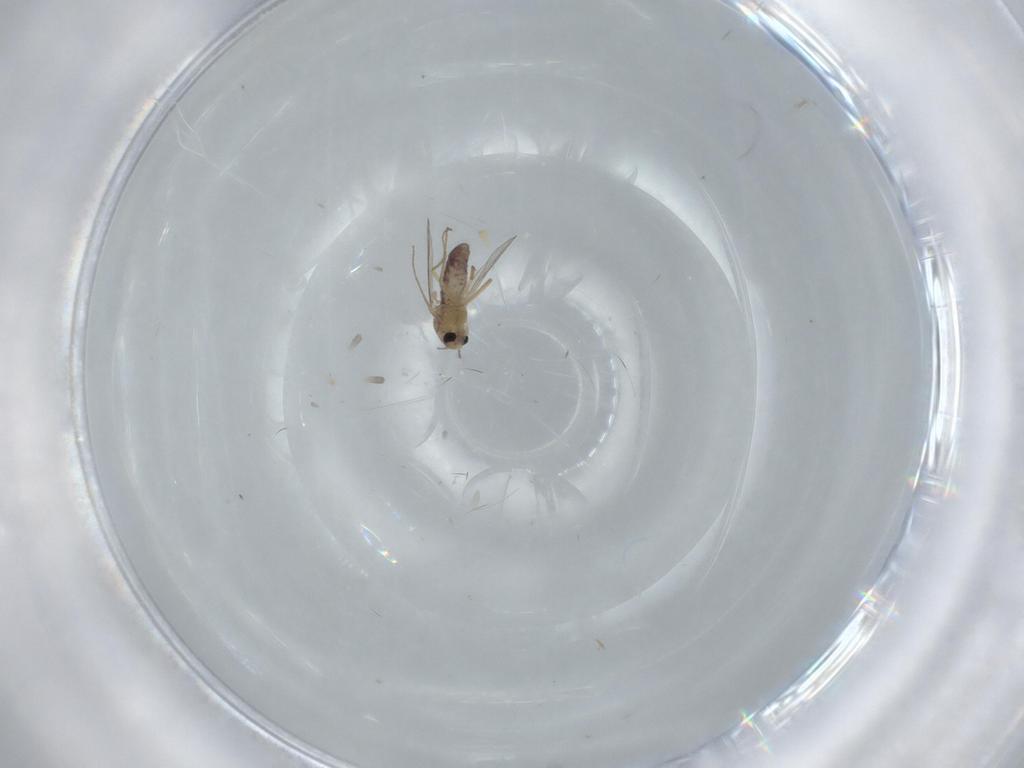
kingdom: Animalia
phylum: Arthropoda
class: Insecta
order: Diptera
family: Chironomidae
